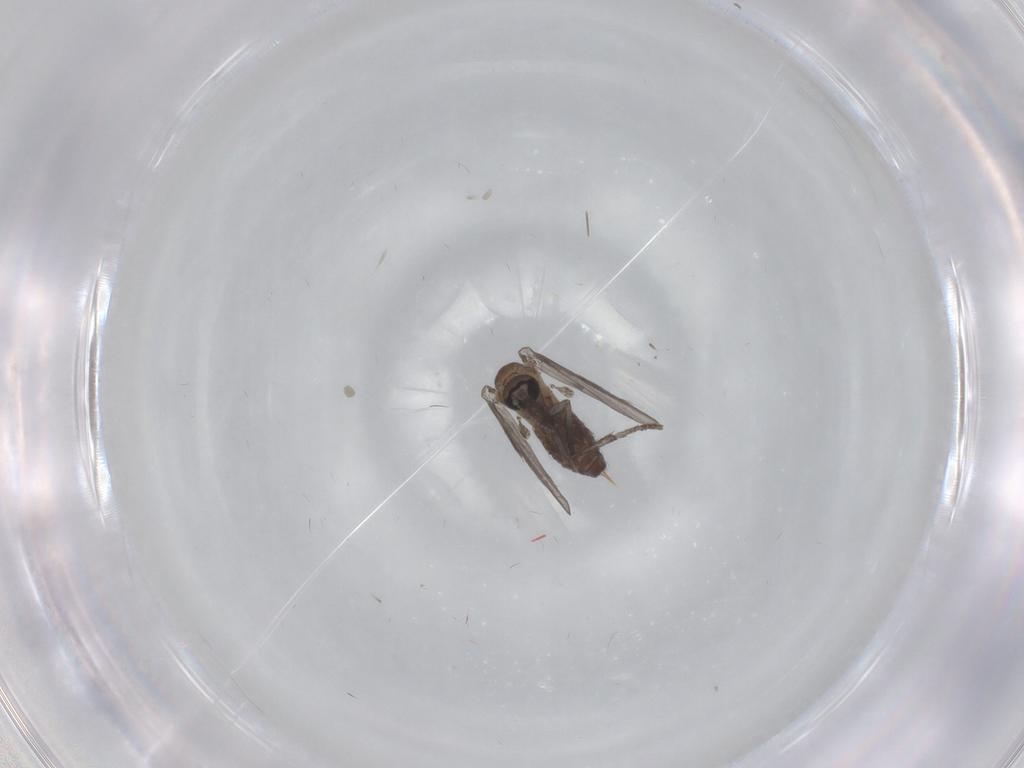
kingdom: Animalia
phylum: Arthropoda
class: Insecta
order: Diptera
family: Psychodidae
